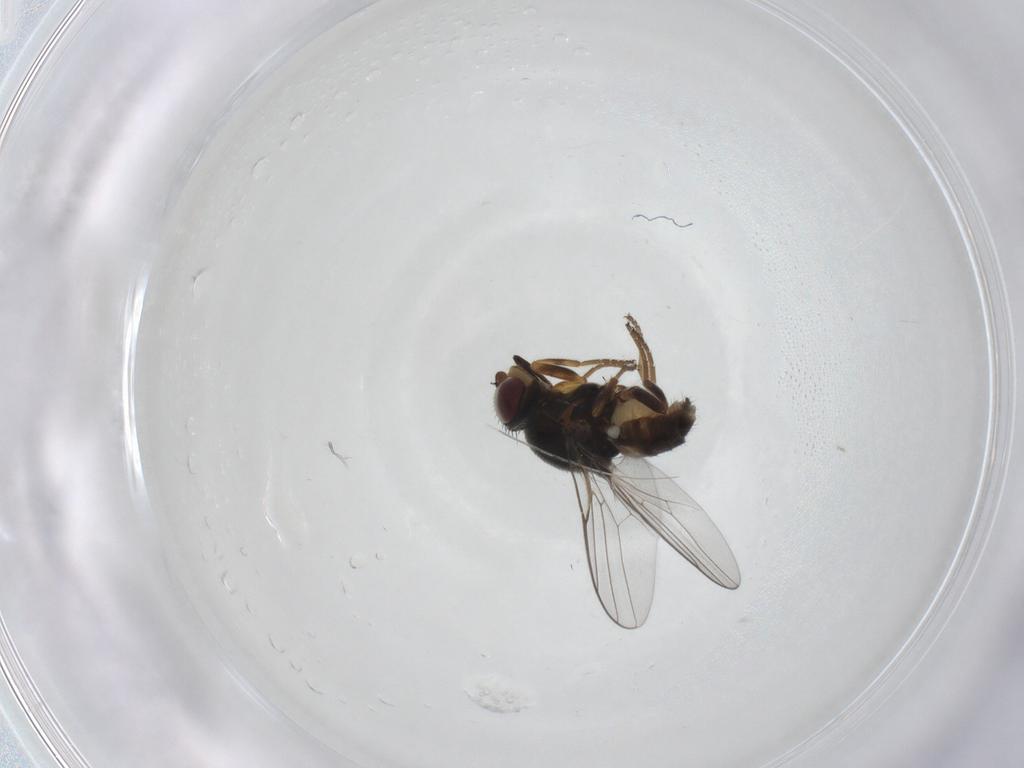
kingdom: Animalia
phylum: Arthropoda
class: Insecta
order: Diptera
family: Chloropidae
